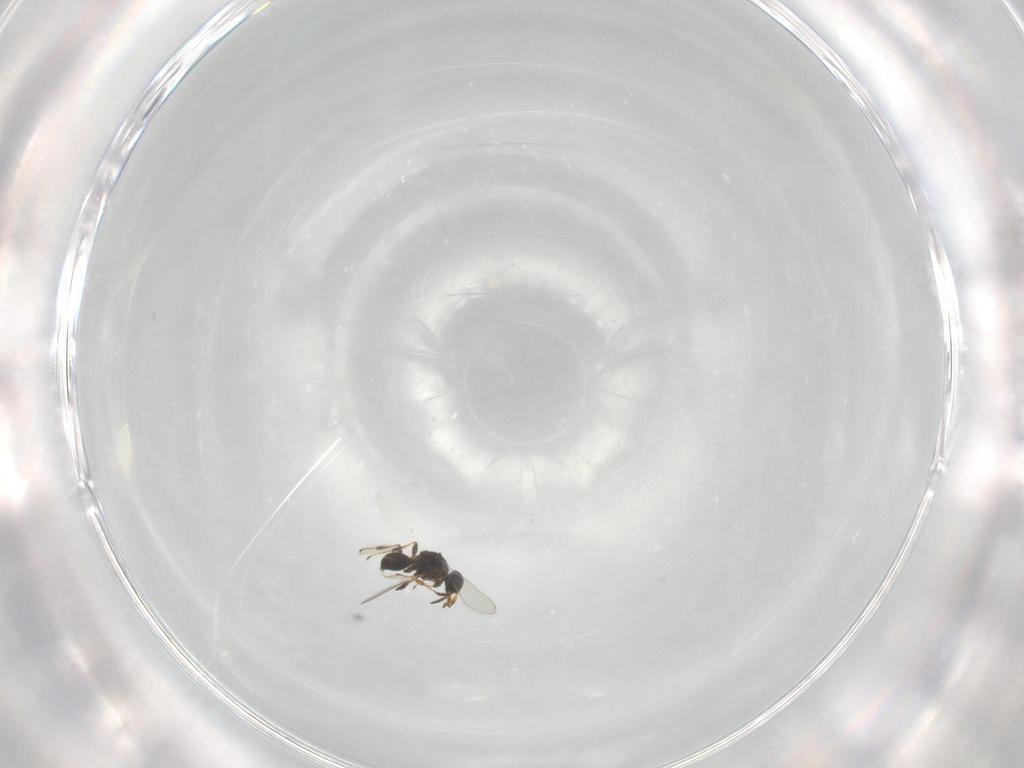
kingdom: Animalia
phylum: Arthropoda
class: Insecta
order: Hymenoptera
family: Platygastridae
